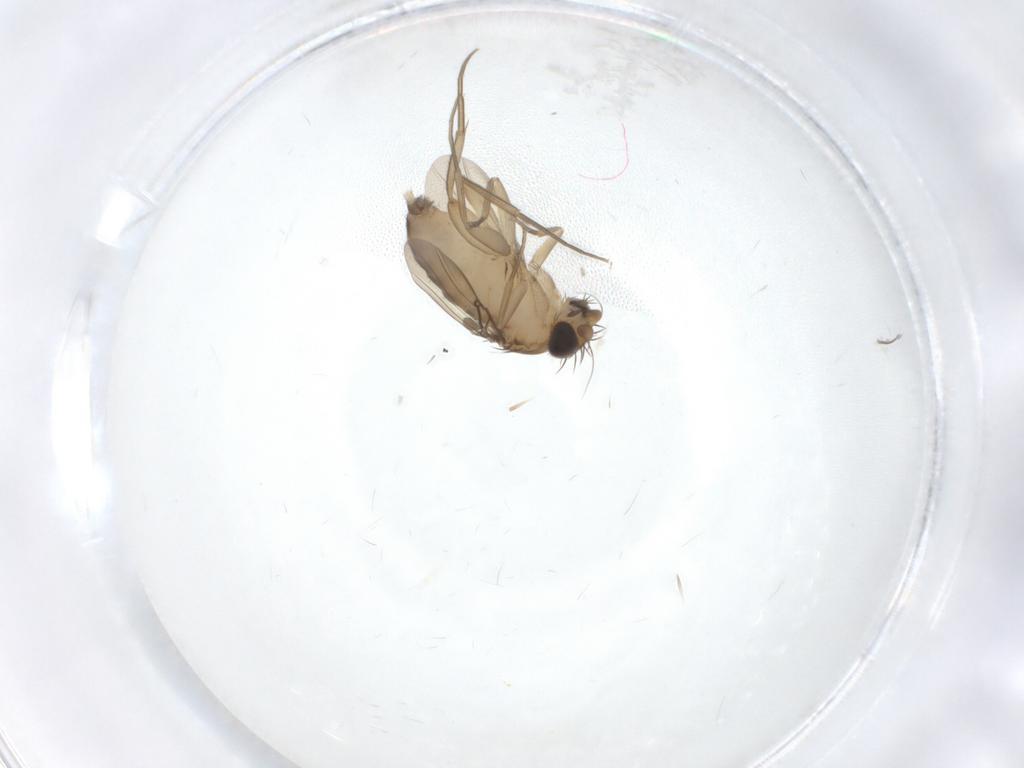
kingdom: Animalia
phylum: Arthropoda
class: Insecta
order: Diptera
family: Phoridae
